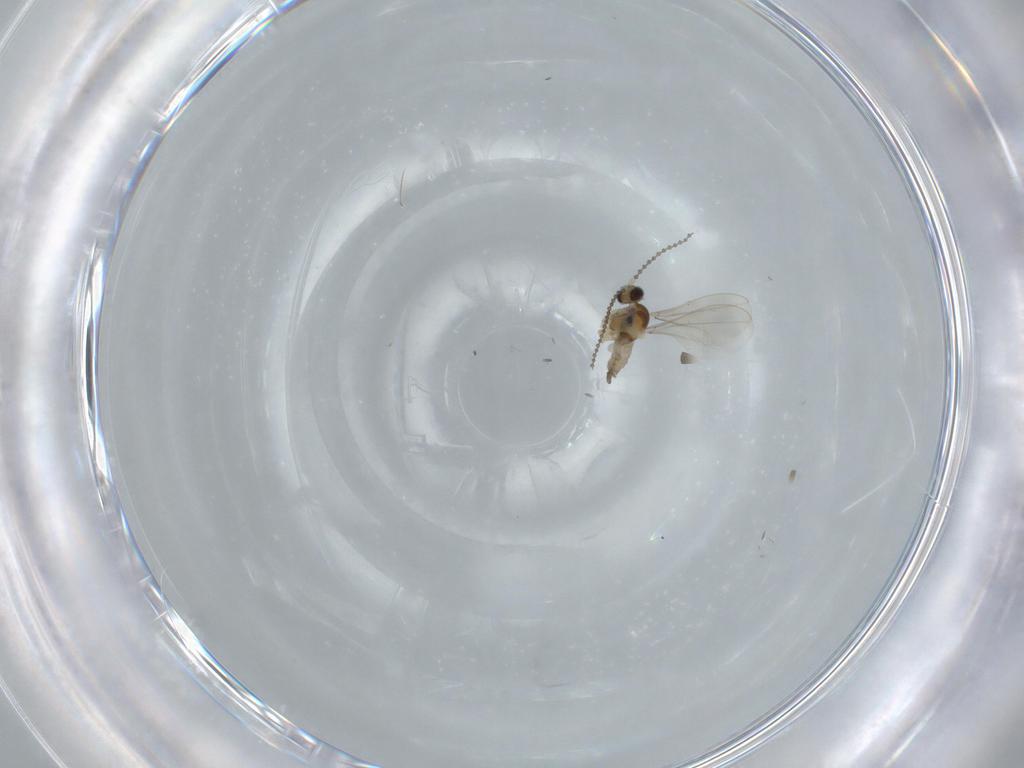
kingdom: Animalia
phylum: Arthropoda
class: Insecta
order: Diptera
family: Cecidomyiidae
